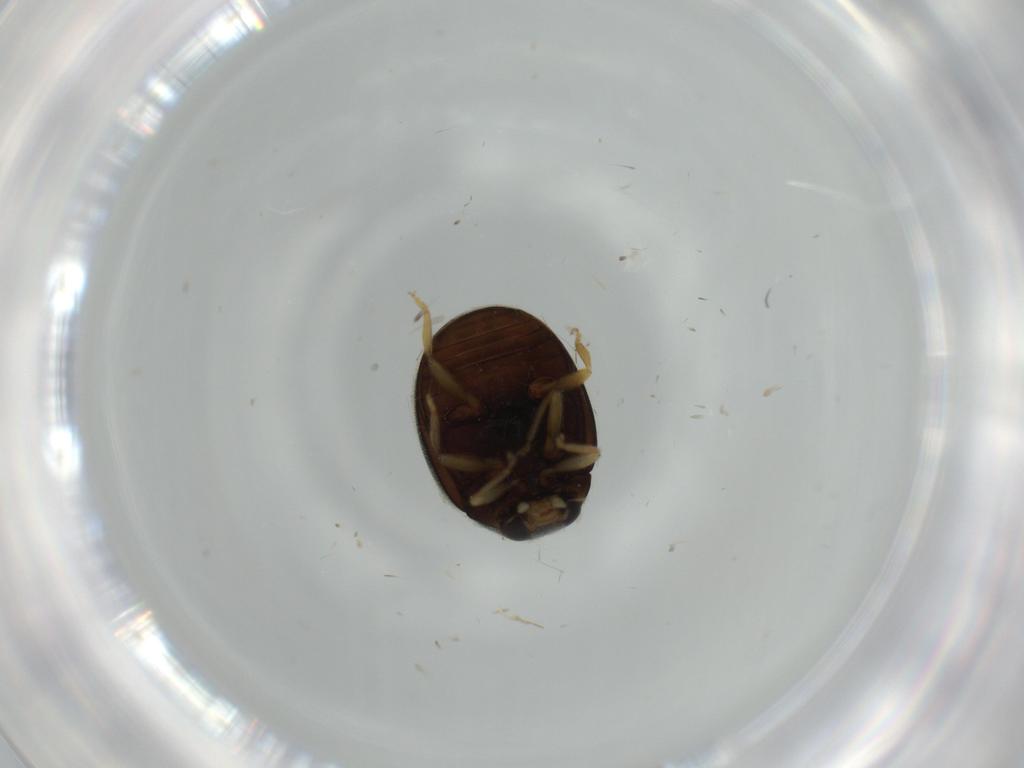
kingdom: Animalia
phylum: Arthropoda
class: Insecta
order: Coleoptera
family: Coccinellidae
